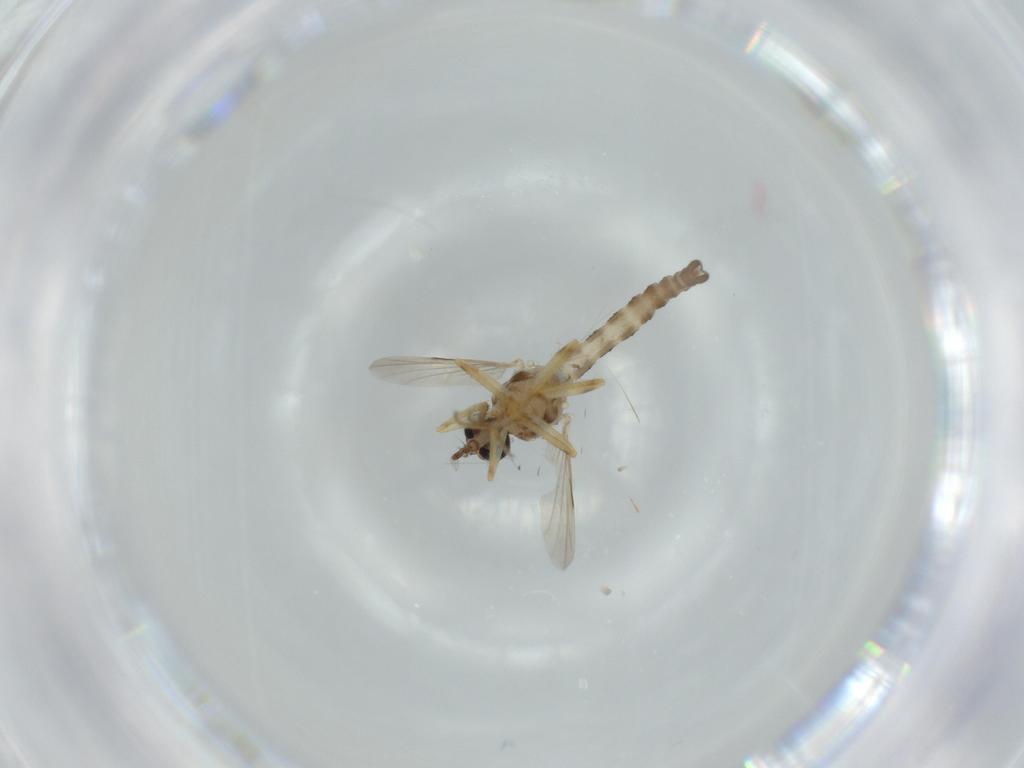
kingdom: Animalia
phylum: Arthropoda
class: Insecta
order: Diptera
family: Ceratopogonidae
